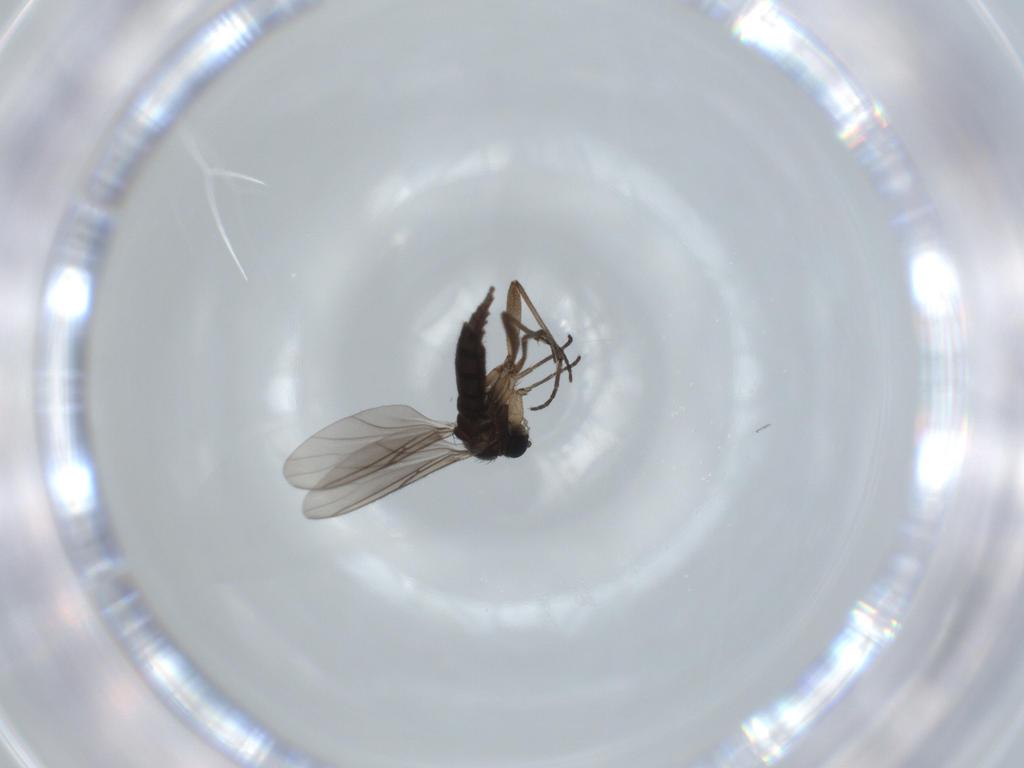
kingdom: Animalia
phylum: Arthropoda
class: Insecta
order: Diptera
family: Sciaridae
